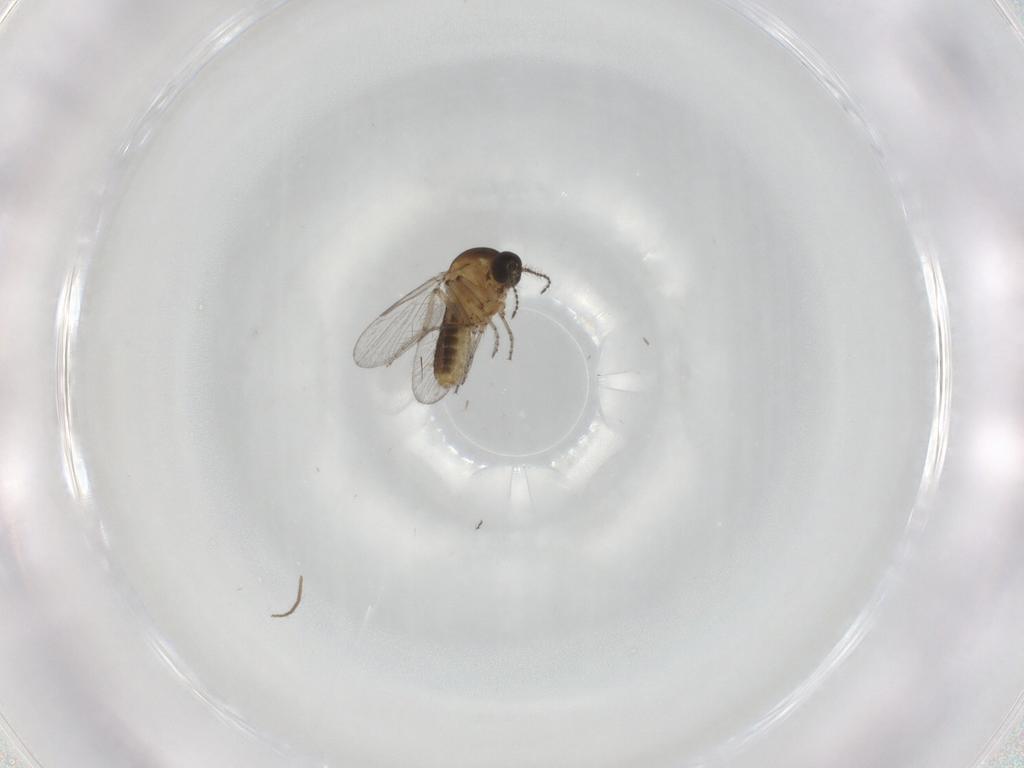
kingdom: Animalia
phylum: Arthropoda
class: Insecta
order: Diptera
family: Ceratopogonidae
